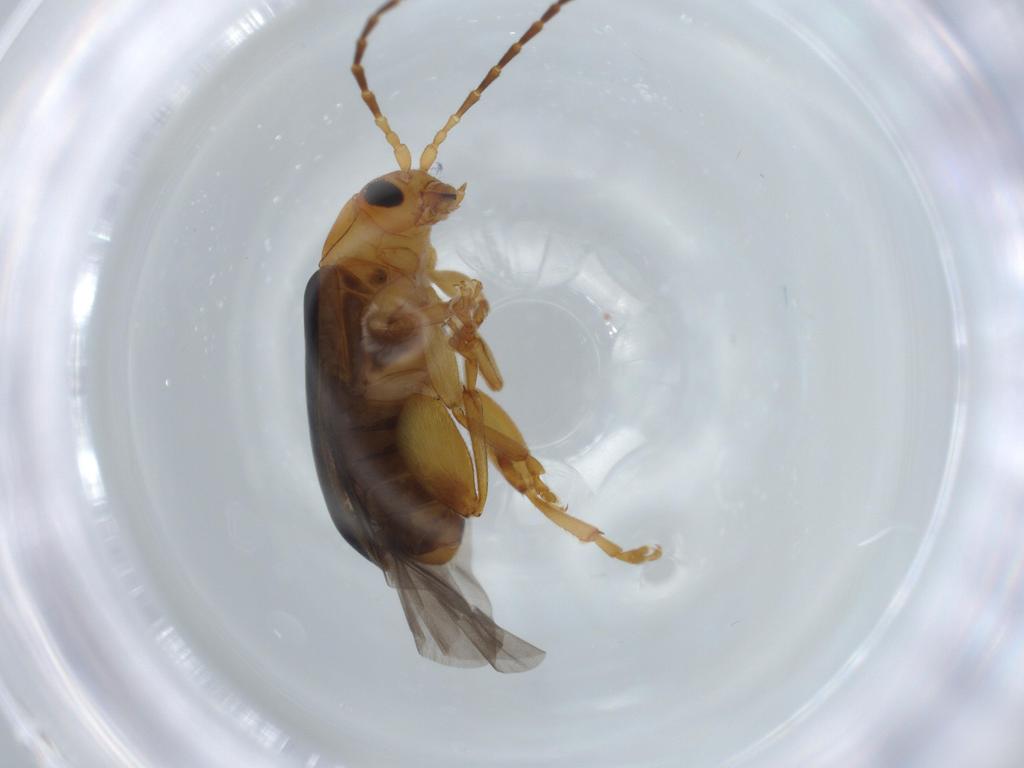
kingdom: Animalia
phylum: Arthropoda
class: Insecta
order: Coleoptera
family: Chrysomelidae
